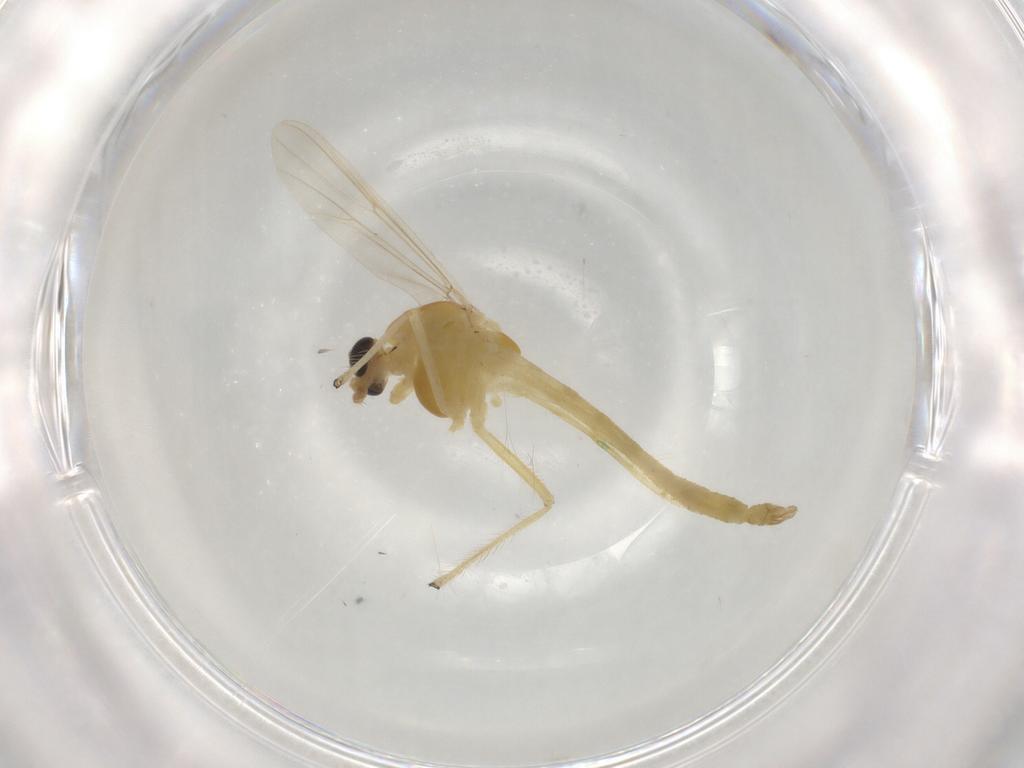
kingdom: Animalia
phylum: Arthropoda
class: Insecta
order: Diptera
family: Chironomidae
